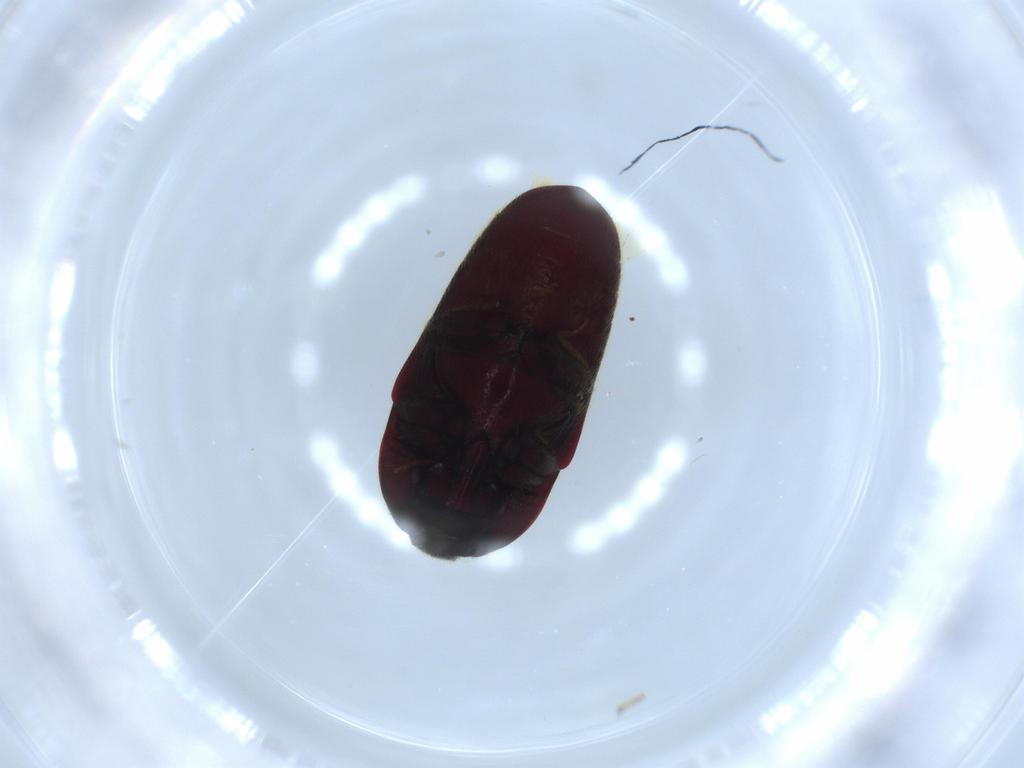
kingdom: Animalia
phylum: Arthropoda
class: Insecta
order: Coleoptera
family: Throscidae
